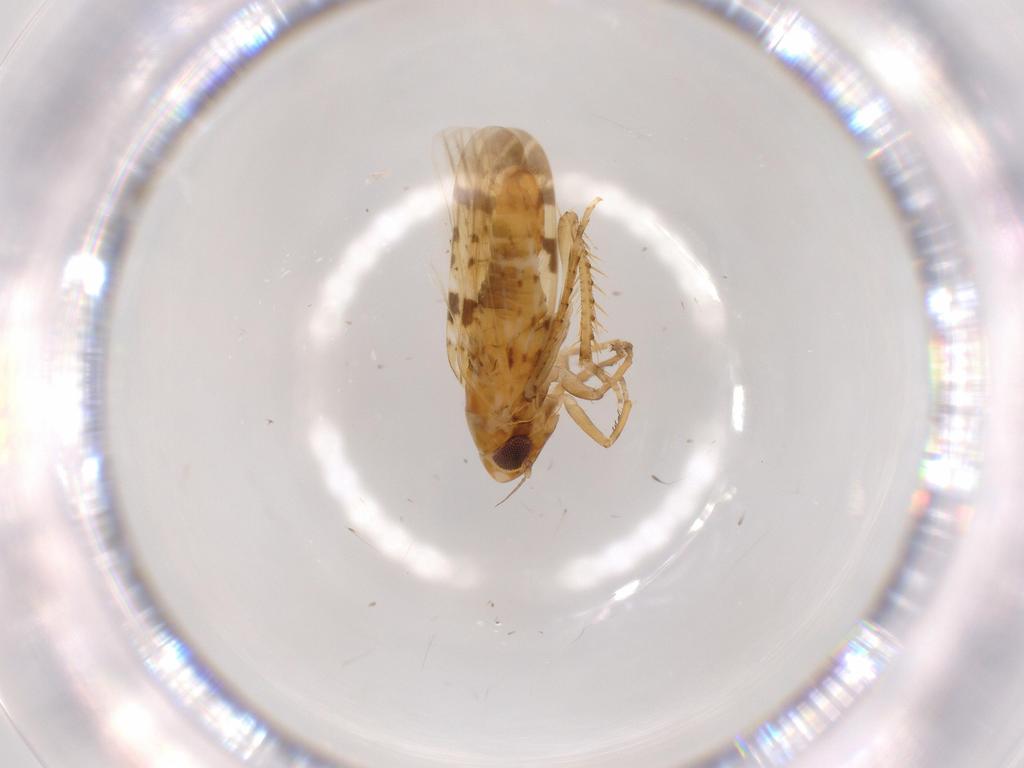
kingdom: Animalia
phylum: Arthropoda
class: Insecta
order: Hemiptera
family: Cicadellidae
